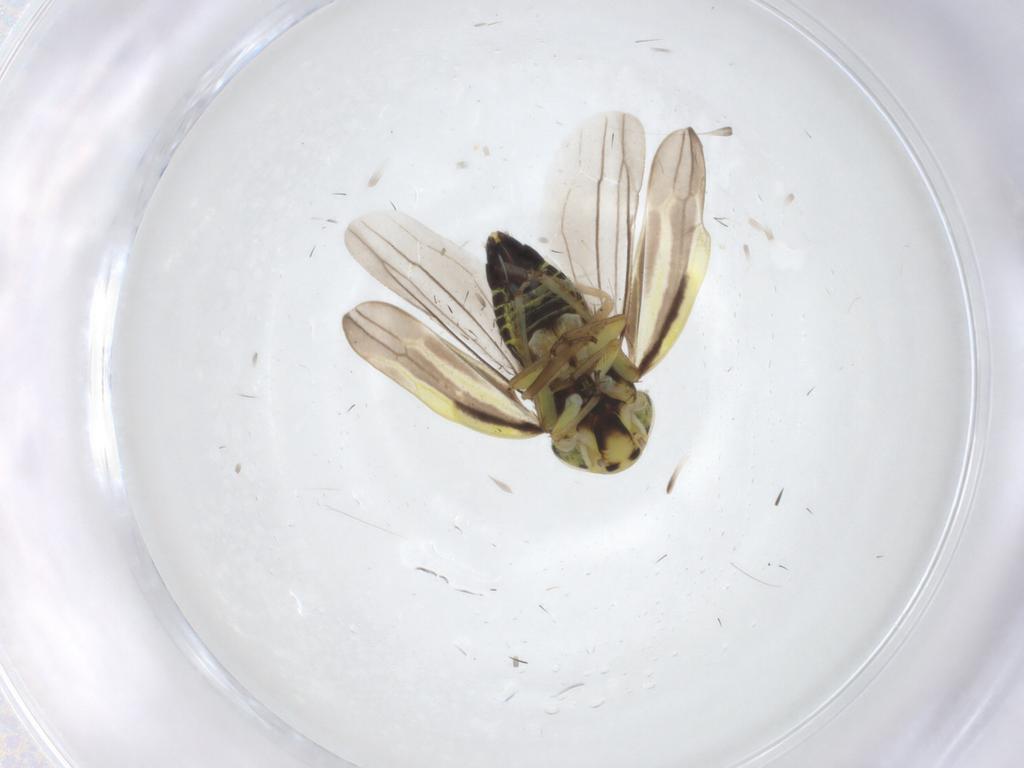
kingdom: Animalia
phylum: Arthropoda
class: Insecta
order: Hemiptera
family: Cicadellidae
